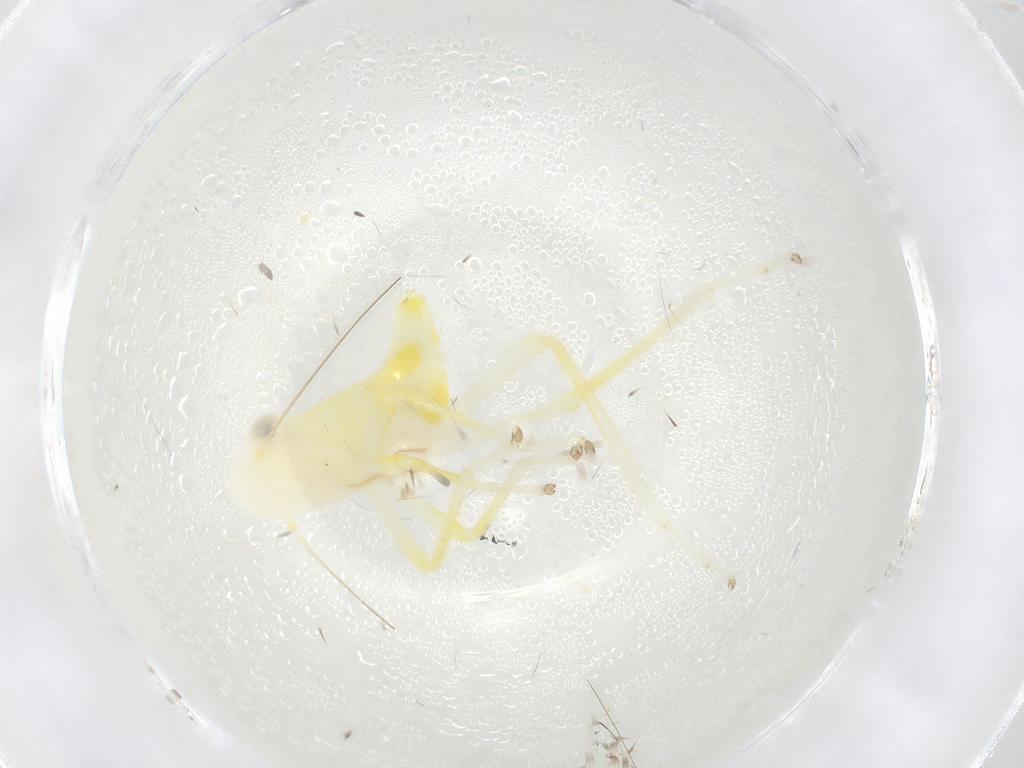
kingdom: Animalia
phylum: Arthropoda
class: Insecta
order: Hemiptera
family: Cicadellidae
